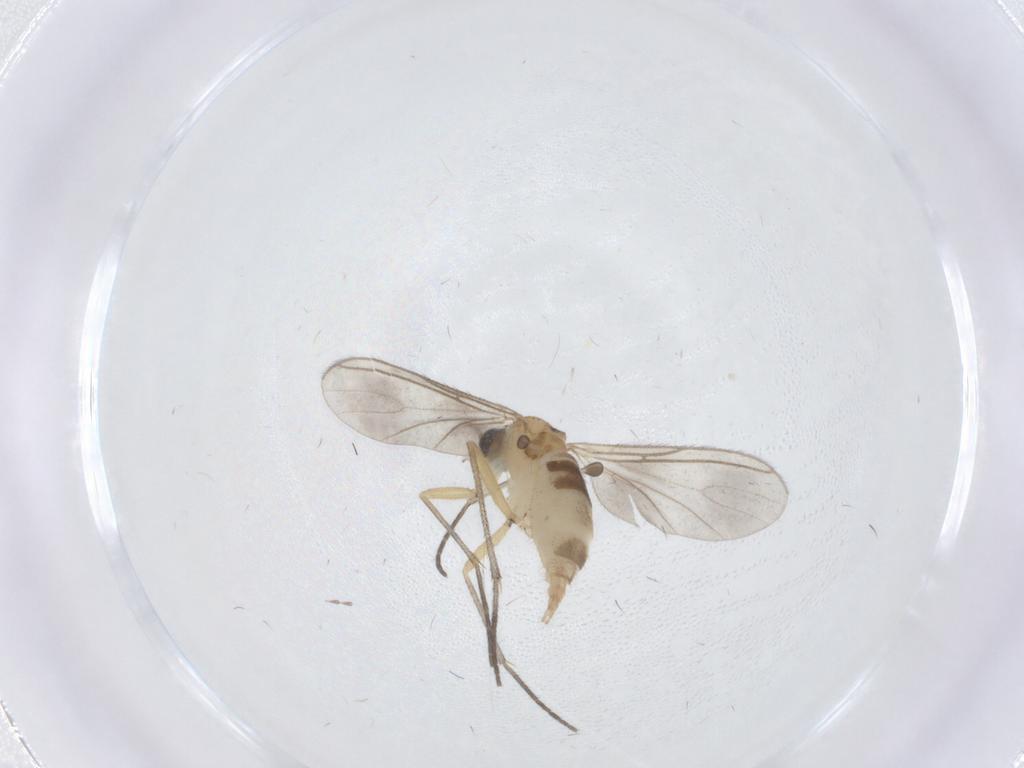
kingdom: Animalia
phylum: Arthropoda
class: Insecta
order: Diptera
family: Sciaridae
